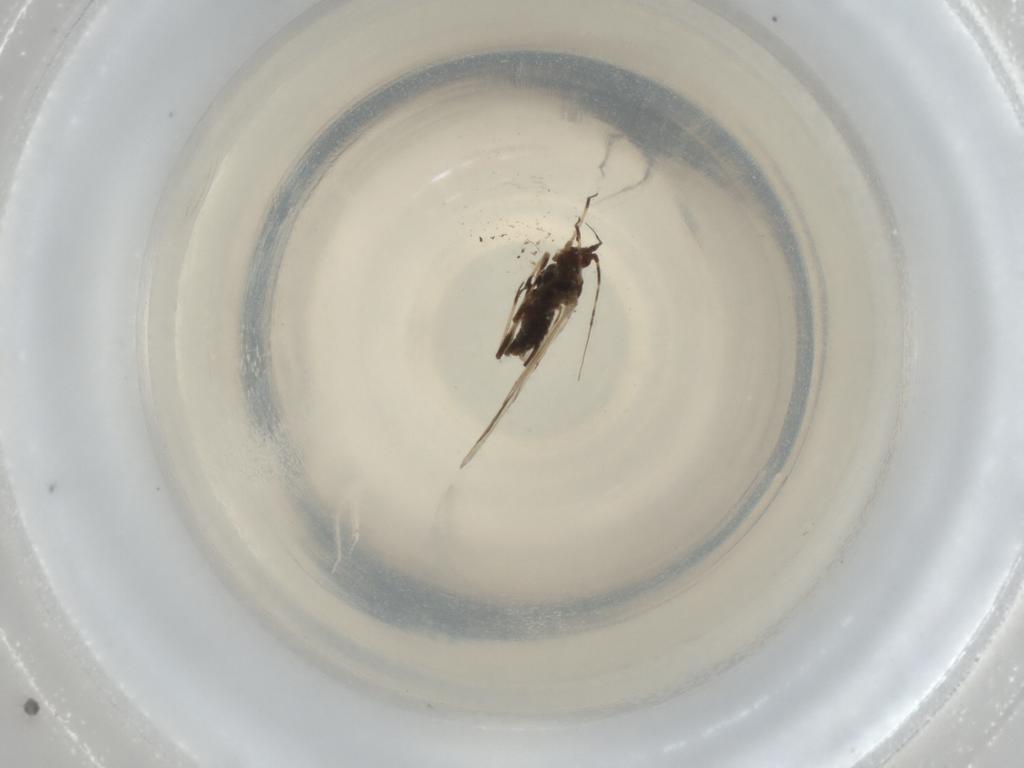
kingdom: Animalia
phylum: Arthropoda
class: Insecta
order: Hemiptera
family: Aphididae
